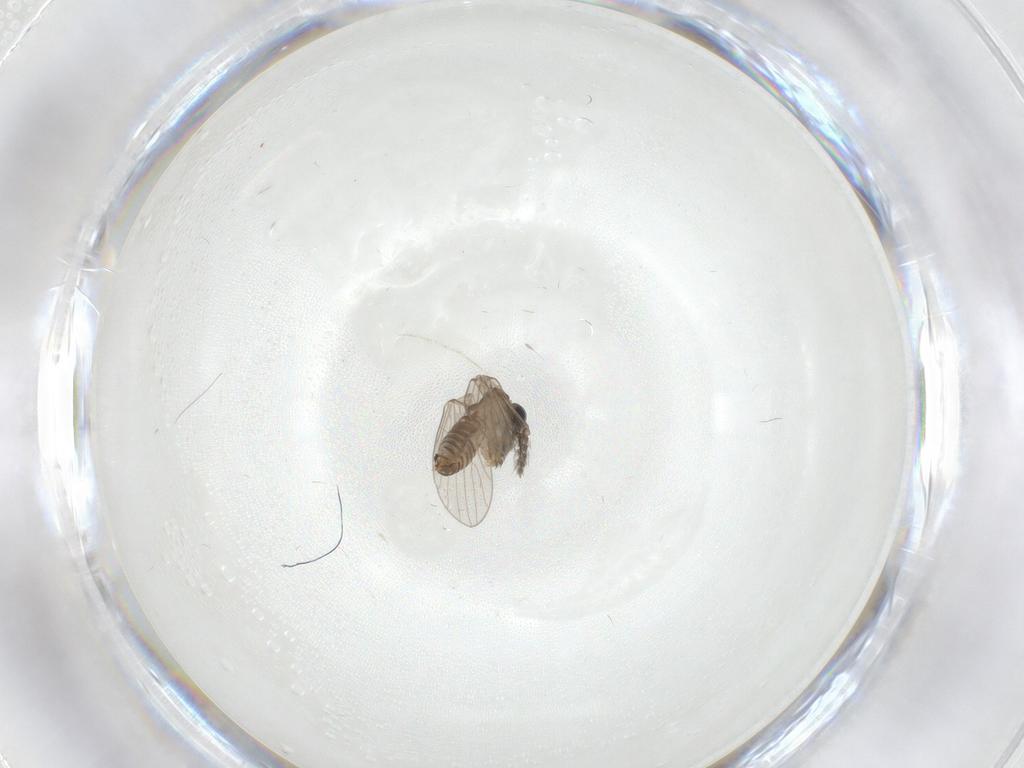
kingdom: Animalia
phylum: Arthropoda
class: Insecta
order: Diptera
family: Psychodidae
